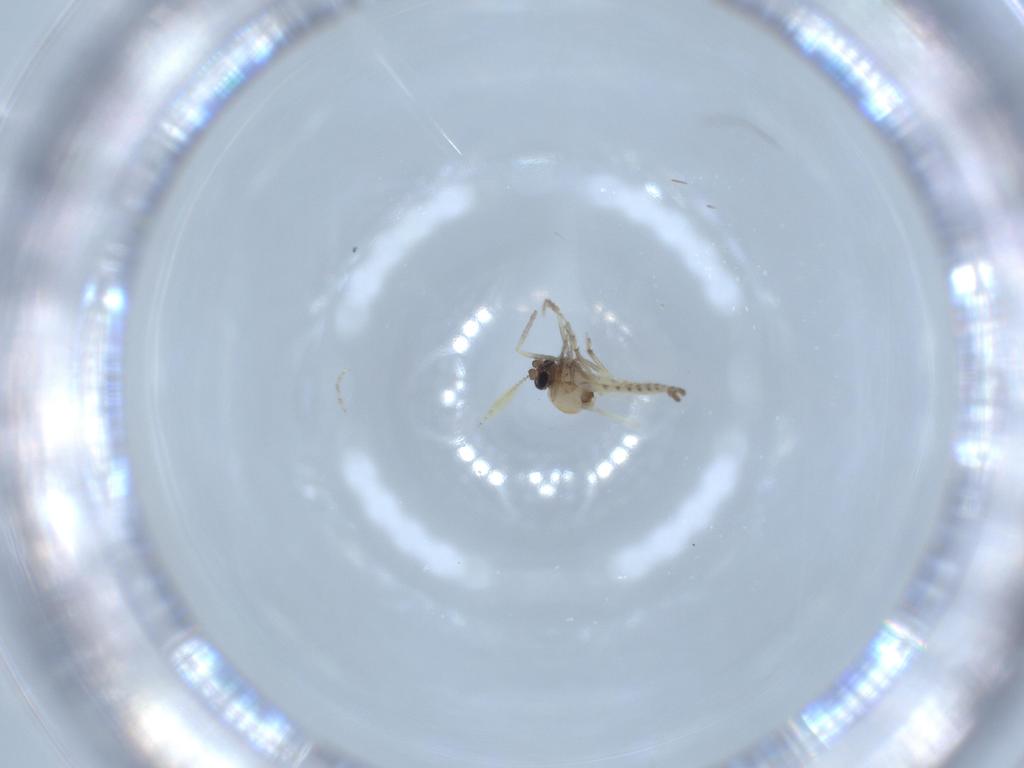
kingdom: Animalia
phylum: Arthropoda
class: Insecta
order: Diptera
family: Ceratopogonidae
